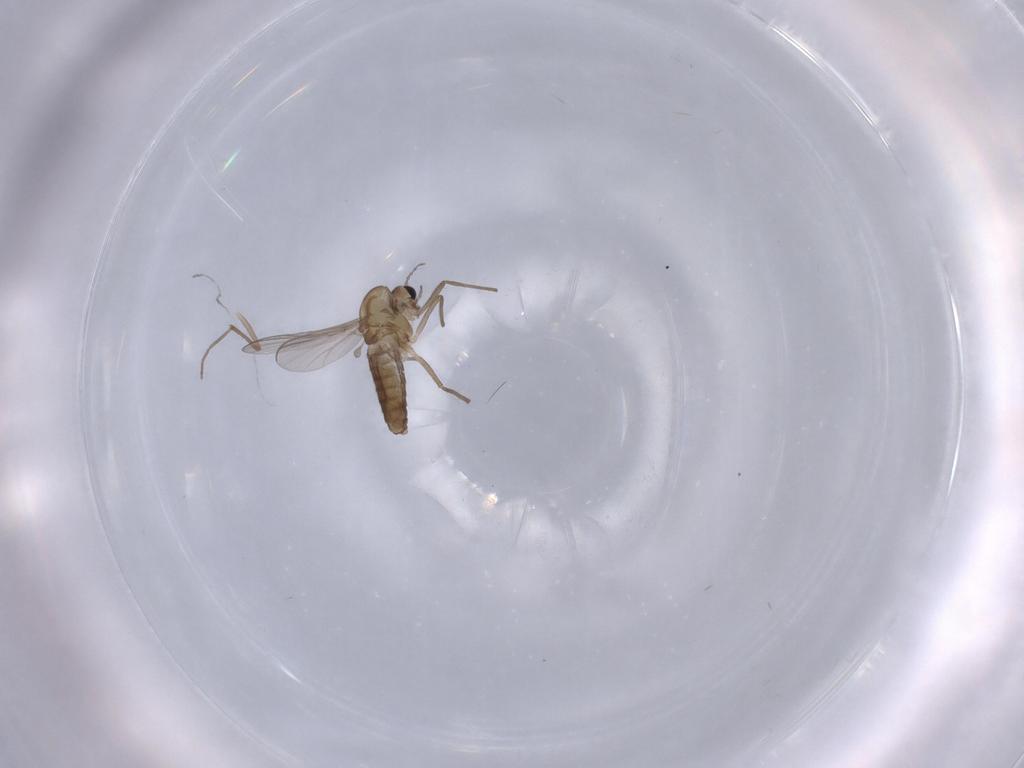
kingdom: Animalia
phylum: Arthropoda
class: Insecta
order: Diptera
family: Chironomidae
